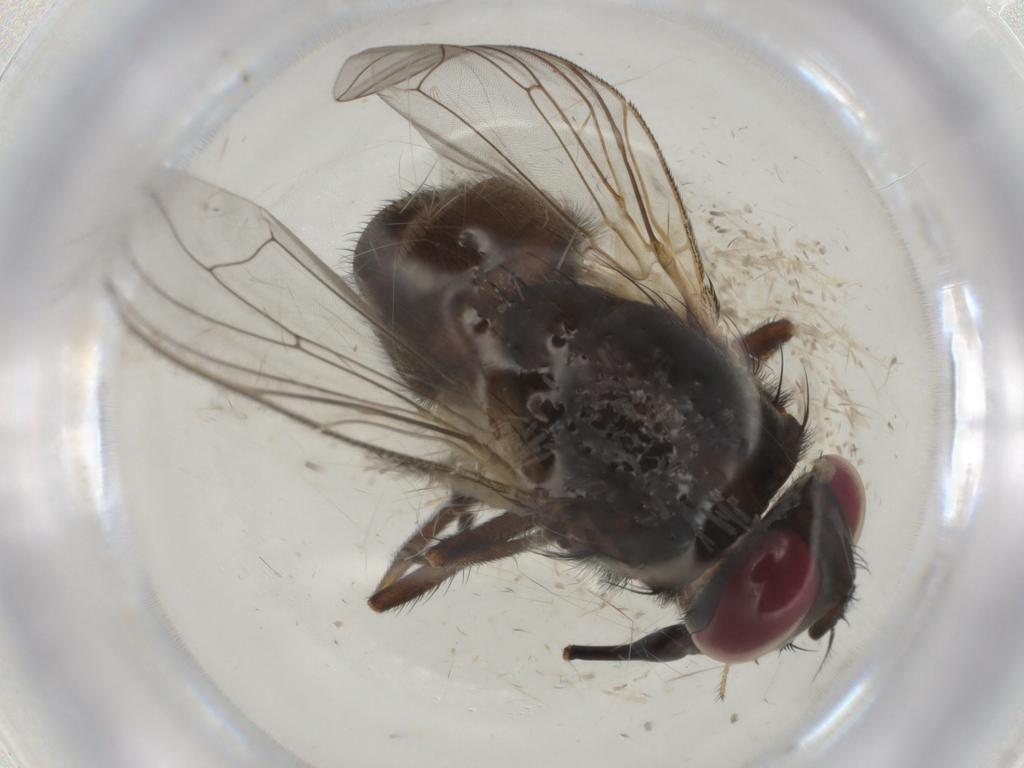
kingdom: Animalia
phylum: Arthropoda
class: Insecta
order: Diptera
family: Muscidae
